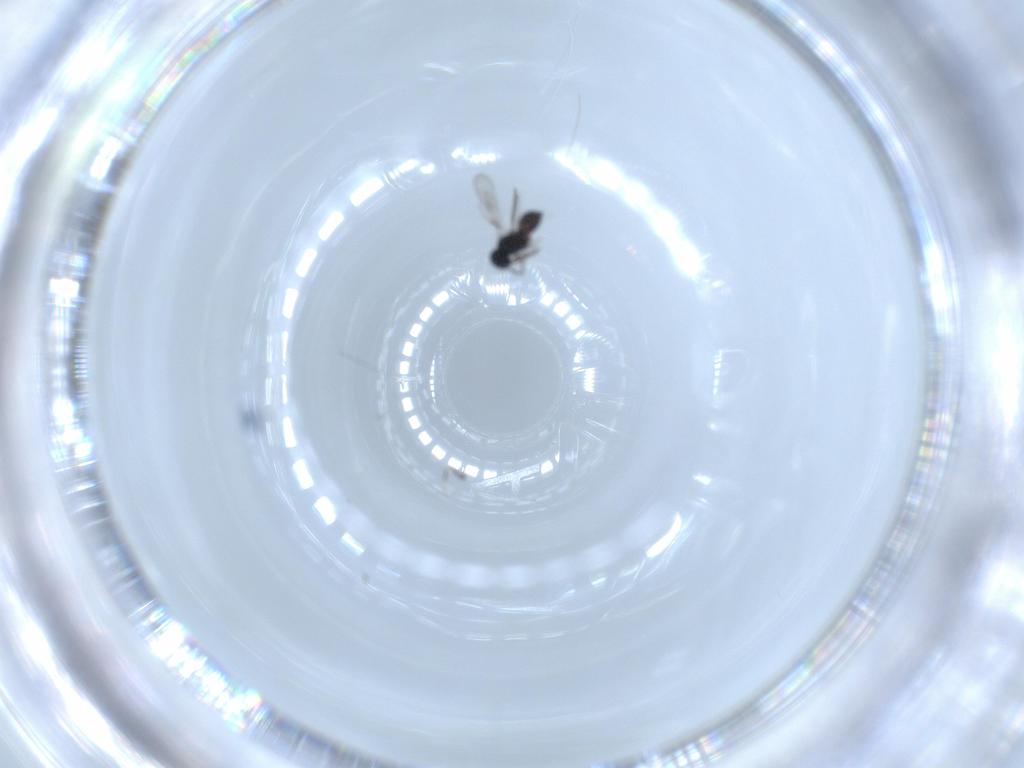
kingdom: Animalia
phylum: Arthropoda
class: Insecta
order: Hymenoptera
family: Scelionidae
